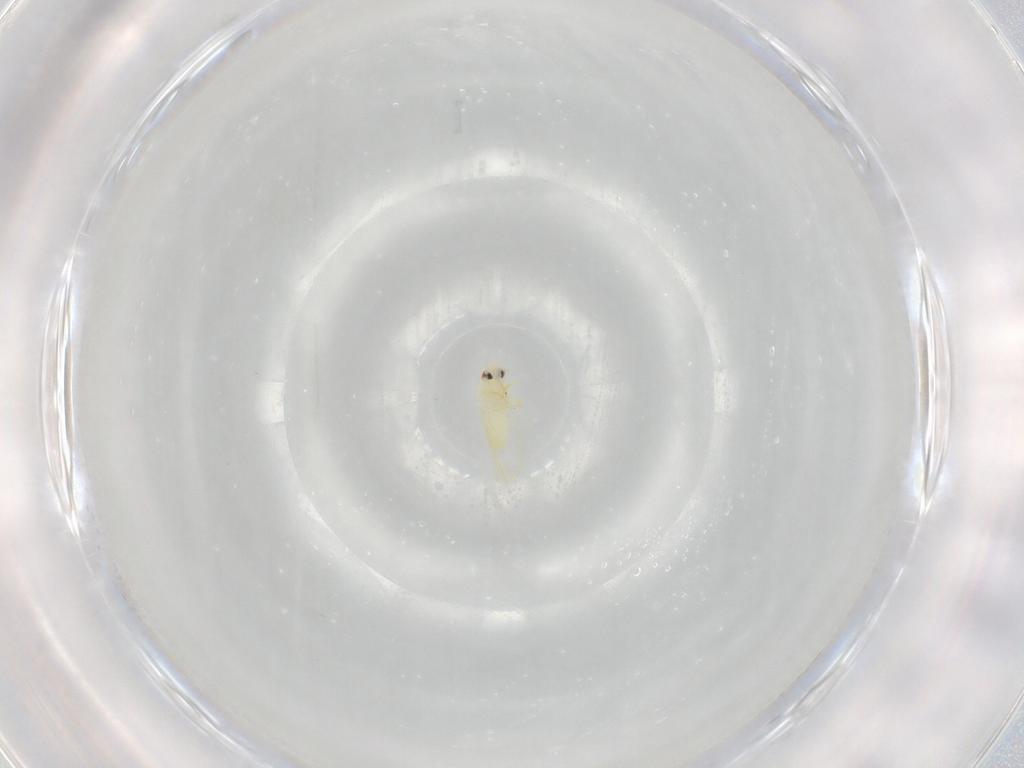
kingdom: Animalia
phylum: Arthropoda
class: Insecta
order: Hemiptera
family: Aleyrodidae
